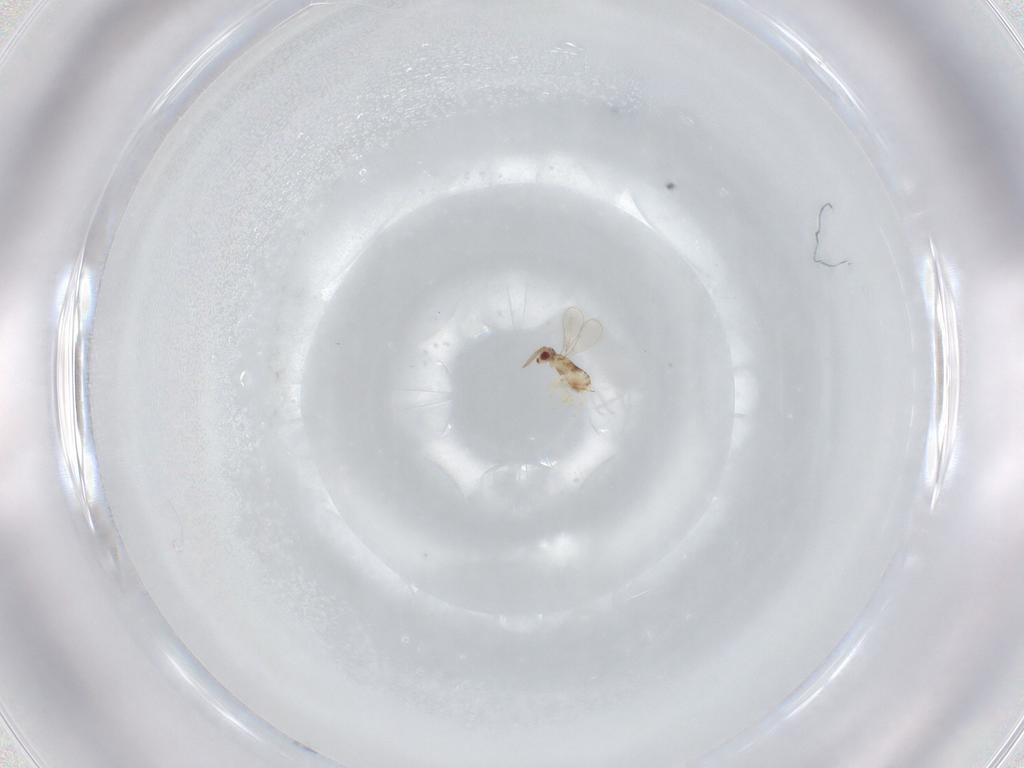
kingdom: Animalia
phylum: Arthropoda
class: Insecta
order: Hymenoptera
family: Aphelinidae
